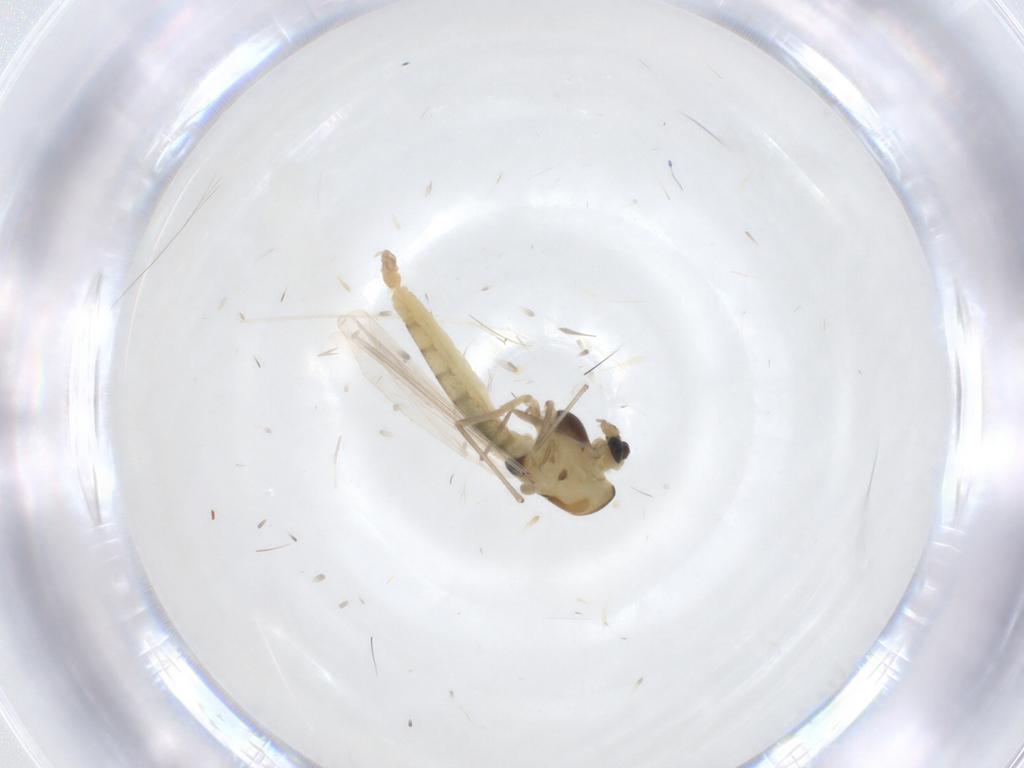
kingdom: Animalia
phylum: Arthropoda
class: Insecta
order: Diptera
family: Chironomidae
